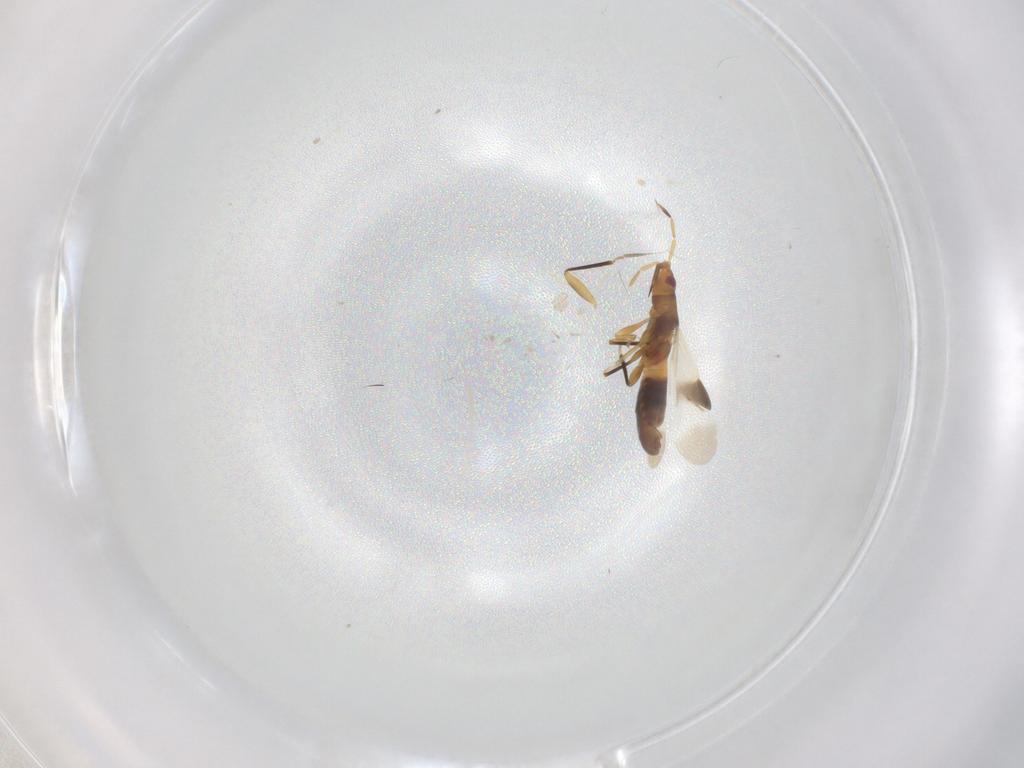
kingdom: Animalia
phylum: Arthropoda
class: Insecta
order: Hemiptera
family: Anthocoridae
